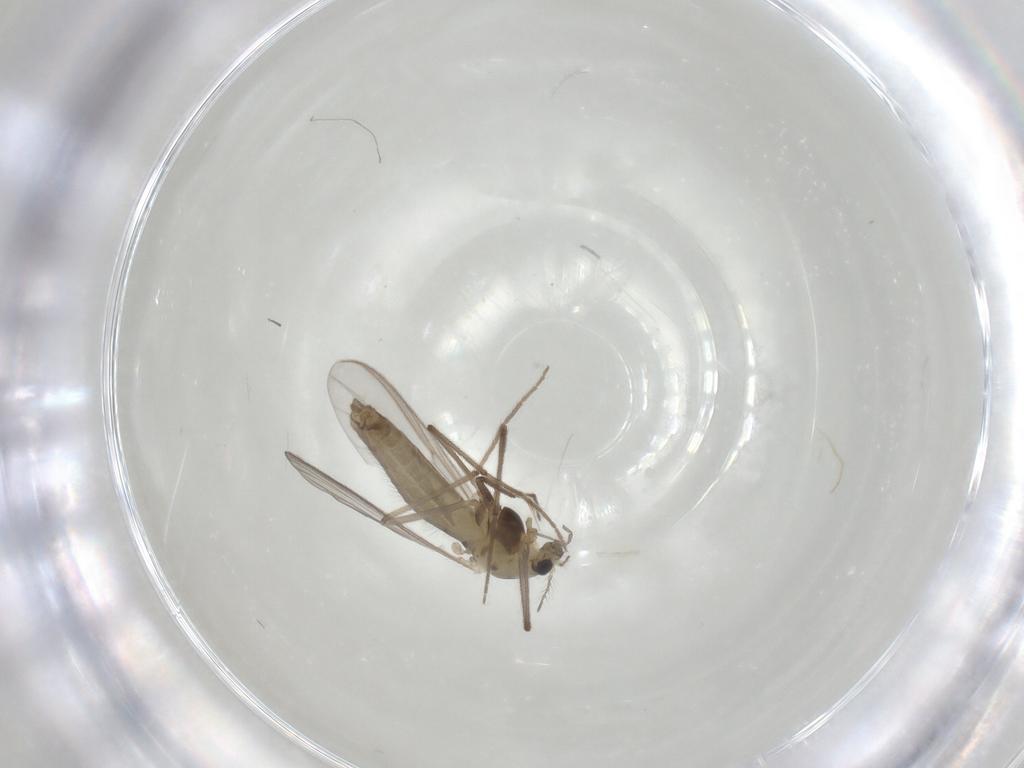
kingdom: Animalia
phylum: Arthropoda
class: Insecta
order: Diptera
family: Chironomidae
